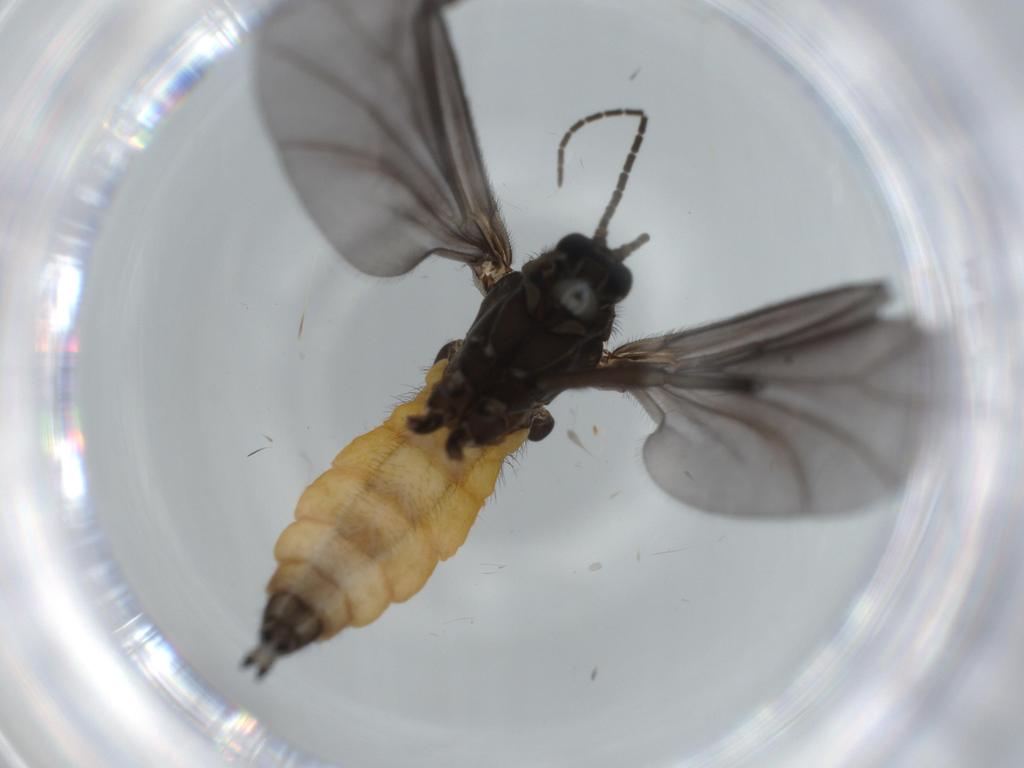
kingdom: Animalia
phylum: Arthropoda
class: Insecta
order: Diptera
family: Sciaridae
